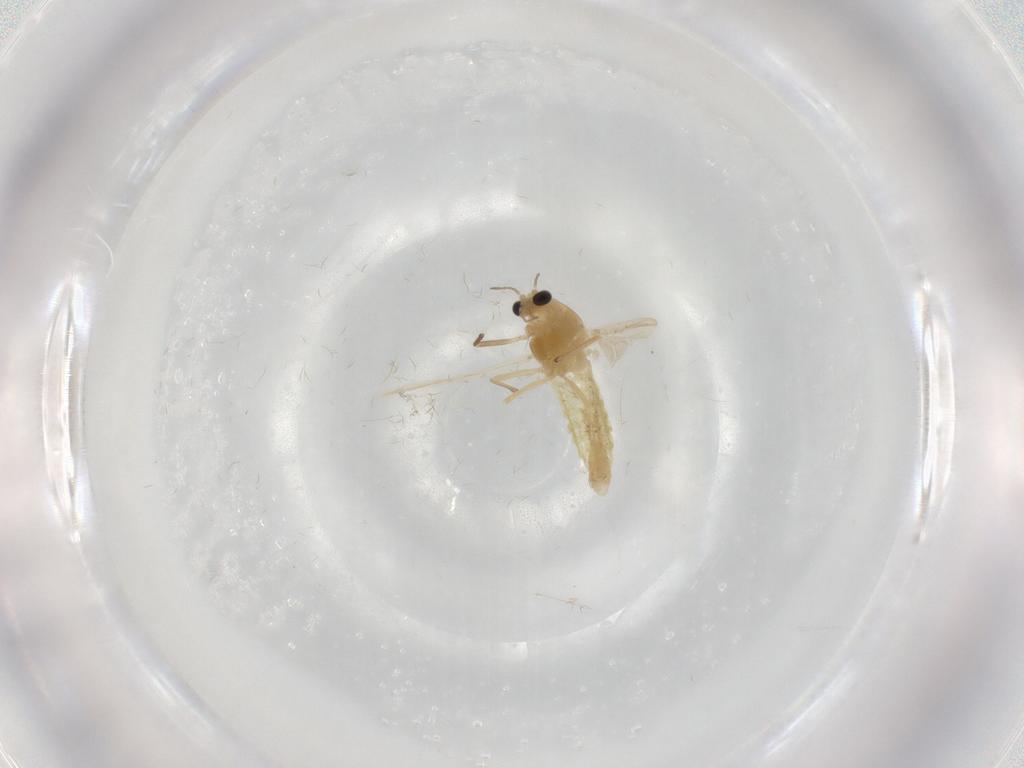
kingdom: Animalia
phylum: Arthropoda
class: Insecta
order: Diptera
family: Chironomidae
